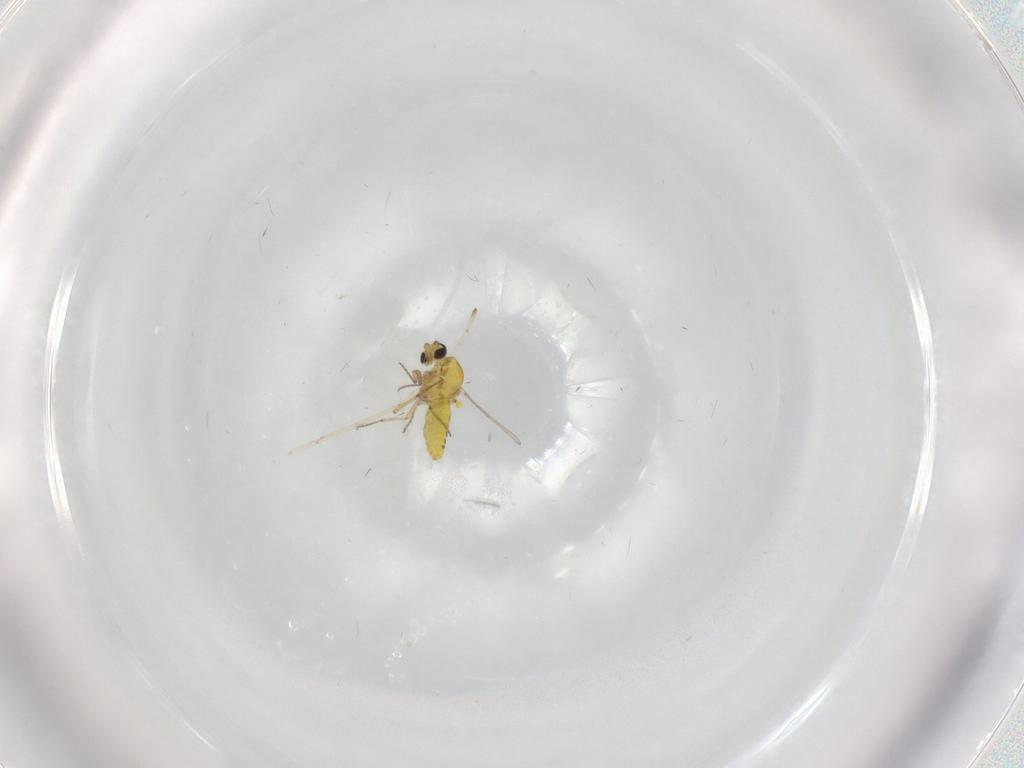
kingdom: Animalia
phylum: Arthropoda
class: Insecta
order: Diptera
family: Ceratopogonidae
